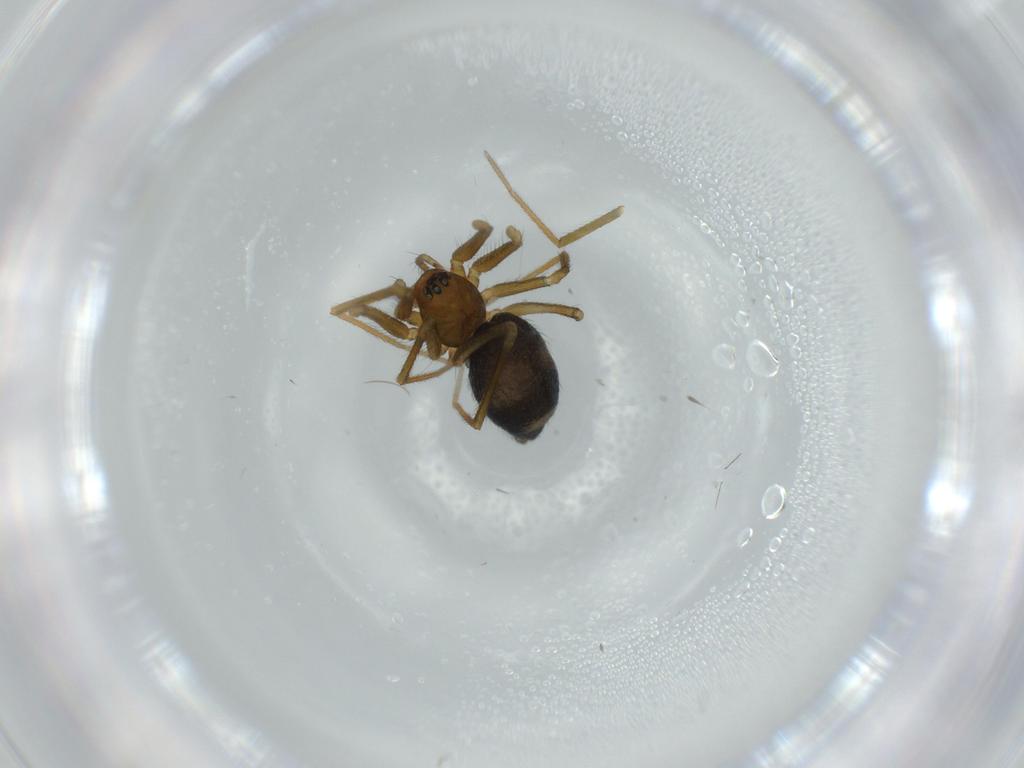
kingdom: Animalia
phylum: Arthropoda
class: Arachnida
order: Araneae
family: Linyphiidae
